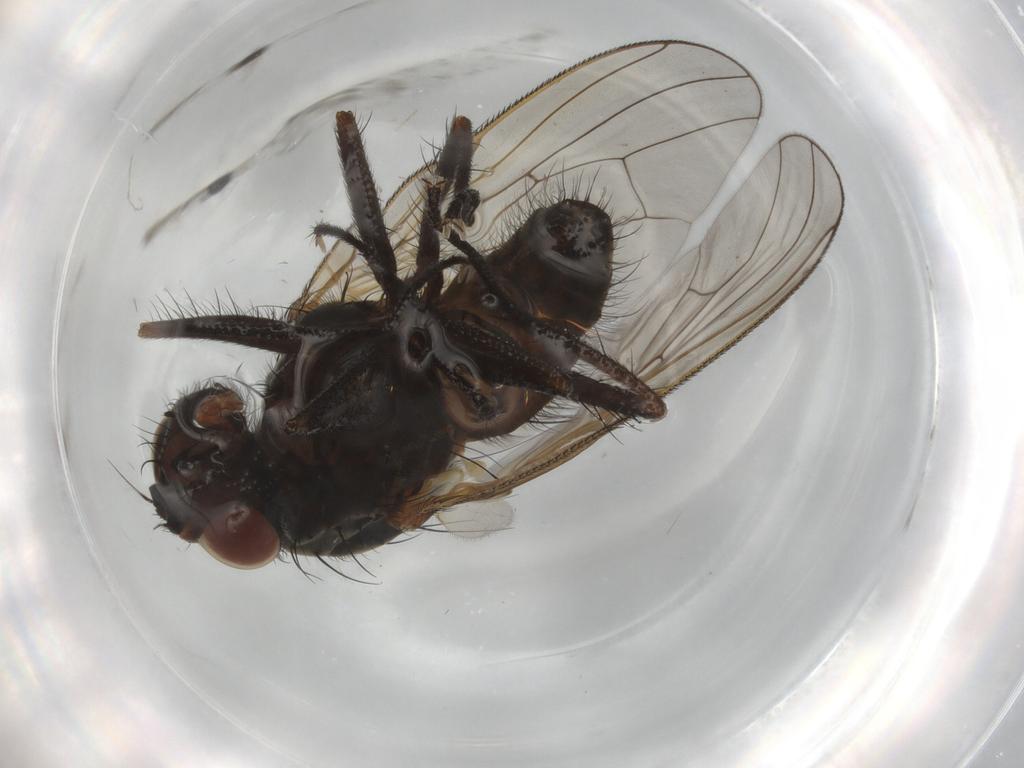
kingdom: Animalia
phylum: Arthropoda
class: Insecta
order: Diptera
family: Anthomyiidae
